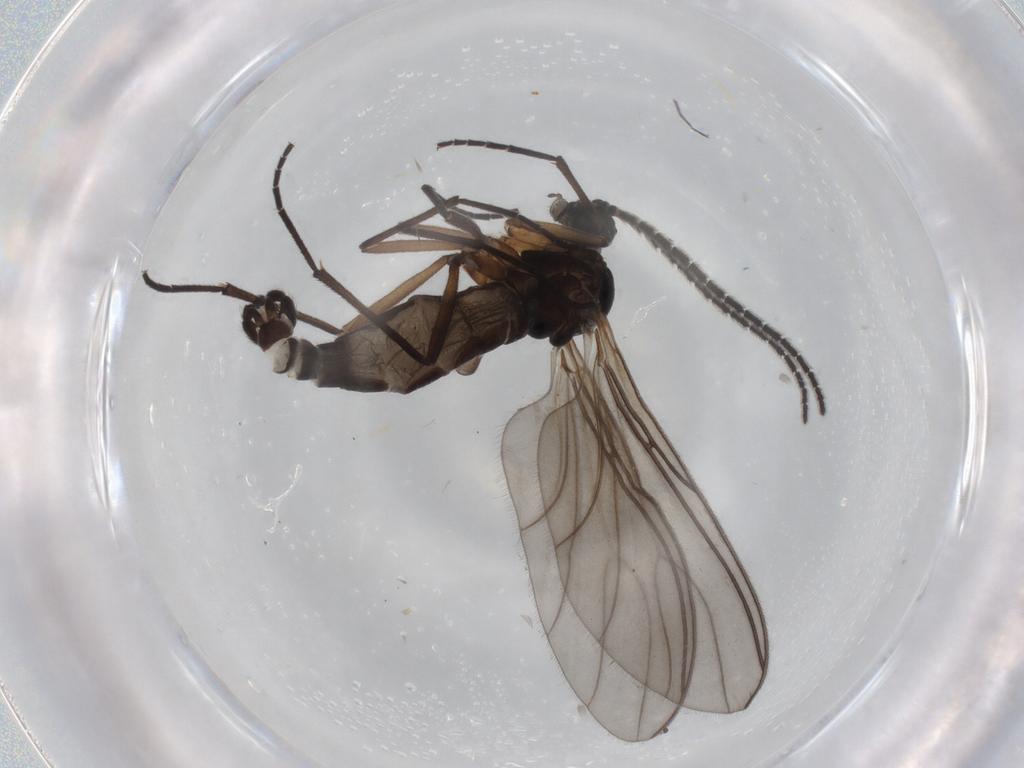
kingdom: Animalia
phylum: Arthropoda
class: Insecta
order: Diptera
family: Sciaridae
